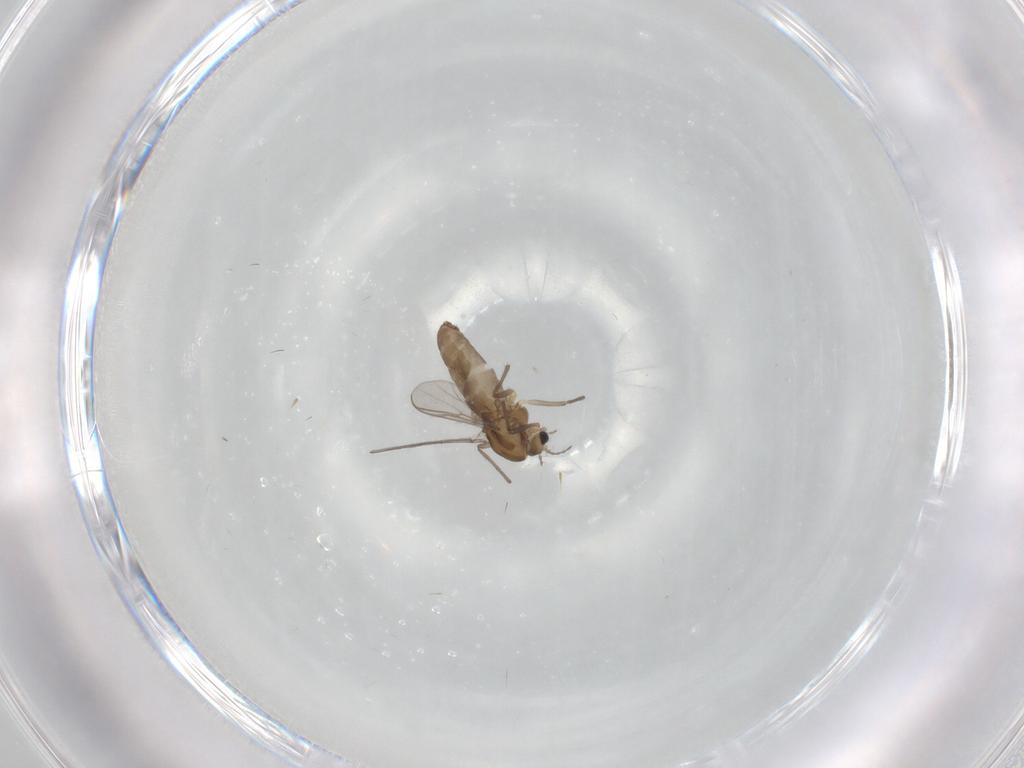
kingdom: Animalia
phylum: Arthropoda
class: Insecta
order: Diptera
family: Chironomidae
